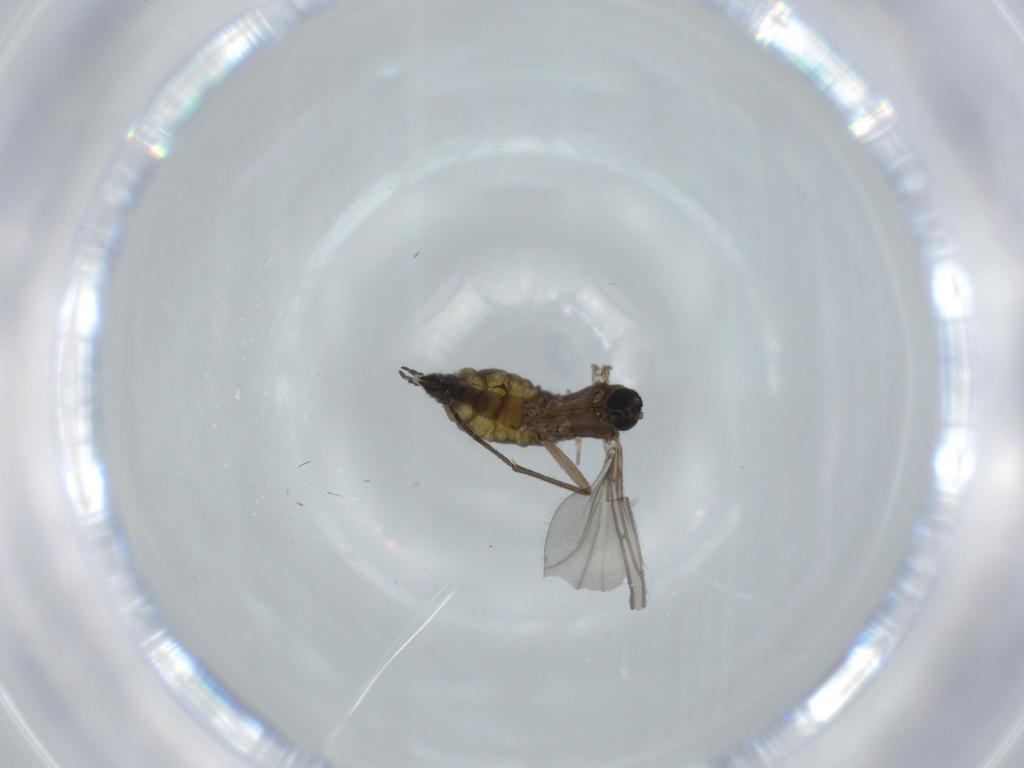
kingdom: Animalia
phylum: Arthropoda
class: Insecta
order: Diptera
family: Sciaridae
